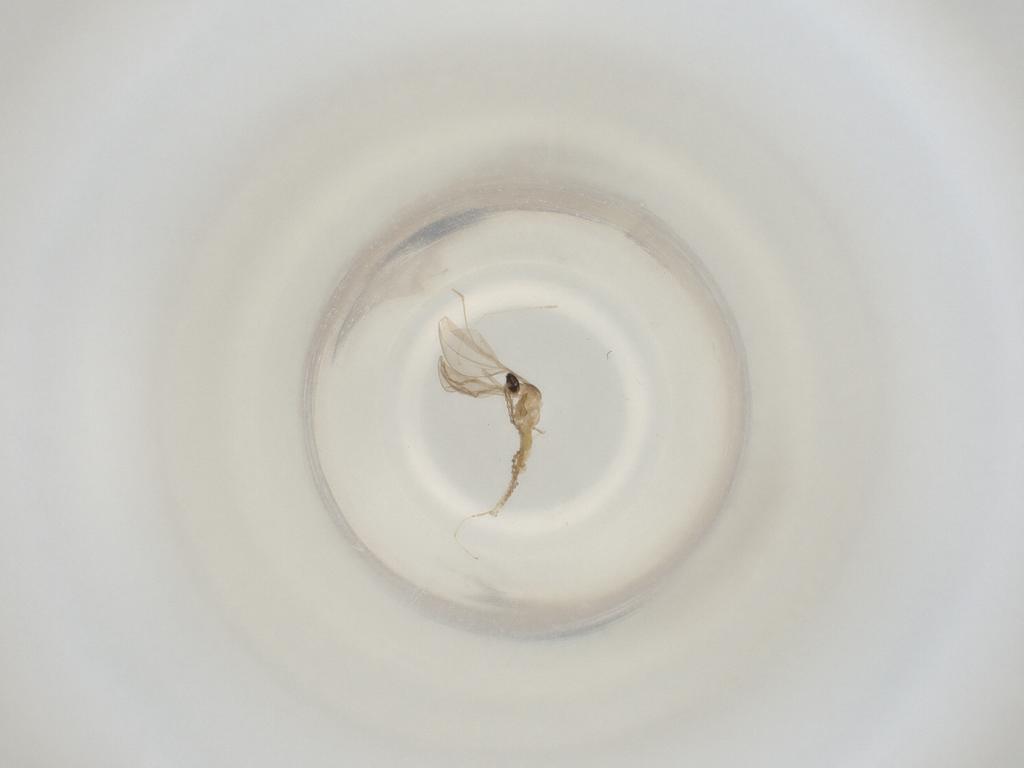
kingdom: Animalia
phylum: Arthropoda
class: Insecta
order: Diptera
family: Cecidomyiidae
